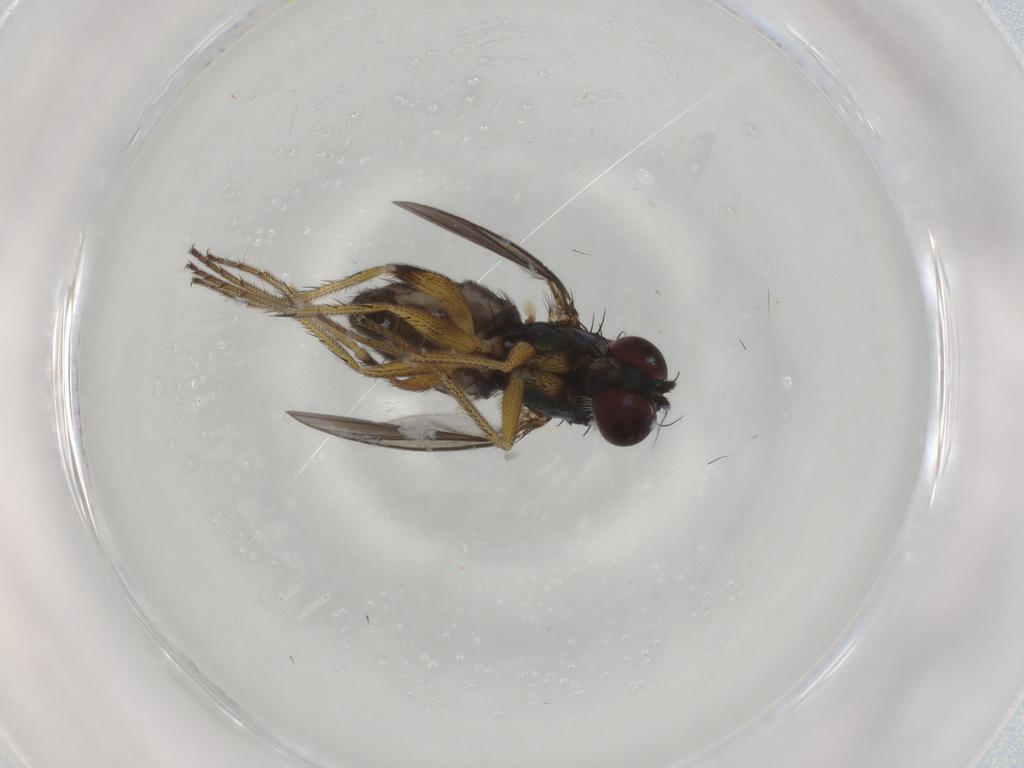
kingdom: Animalia
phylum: Arthropoda
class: Insecta
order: Diptera
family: Dolichopodidae
